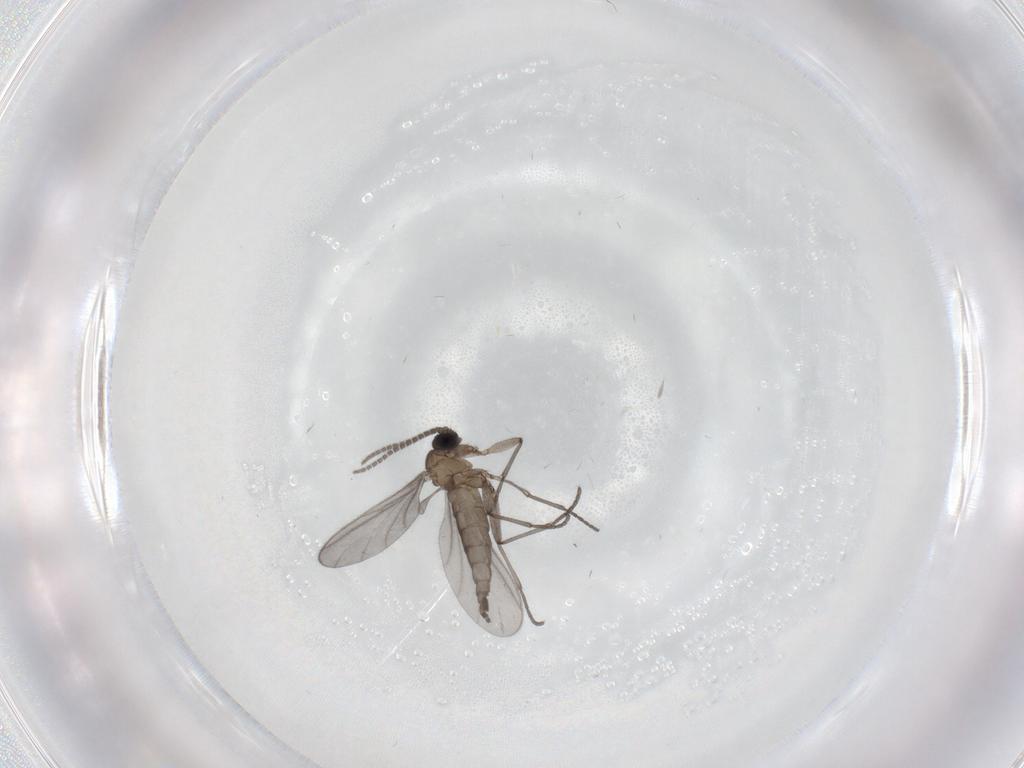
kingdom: Animalia
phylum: Arthropoda
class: Insecta
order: Diptera
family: Sciaridae
